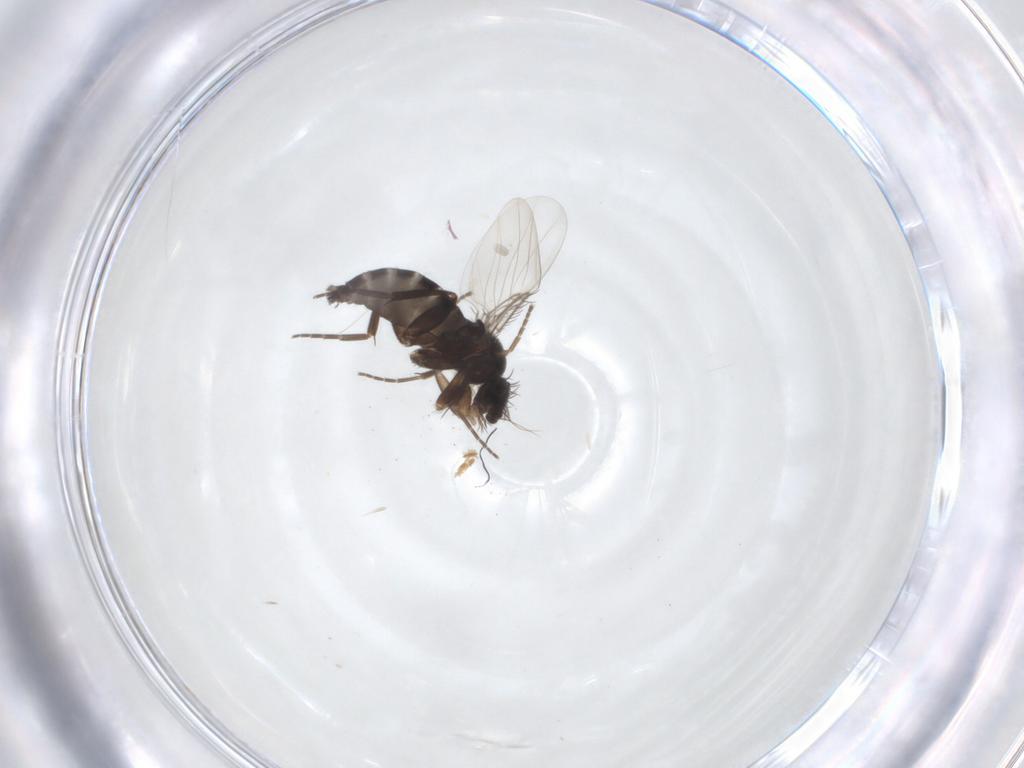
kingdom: Animalia
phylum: Arthropoda
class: Insecta
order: Diptera
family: Phoridae
